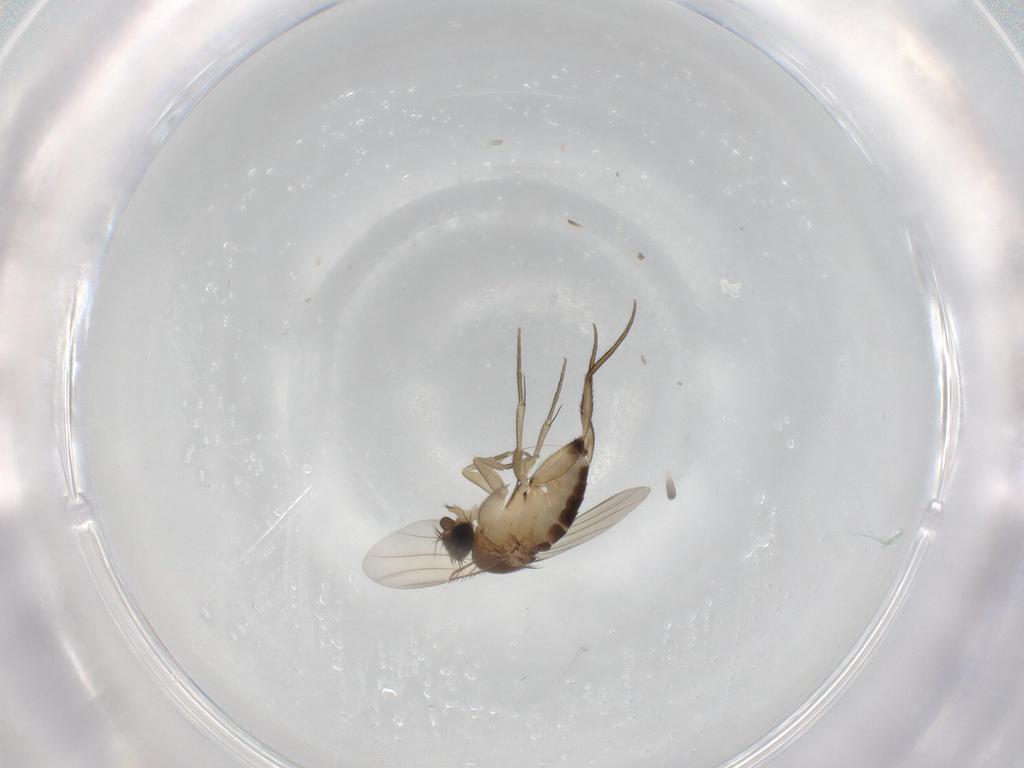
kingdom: Animalia
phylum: Arthropoda
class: Insecta
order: Diptera
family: Phoridae
